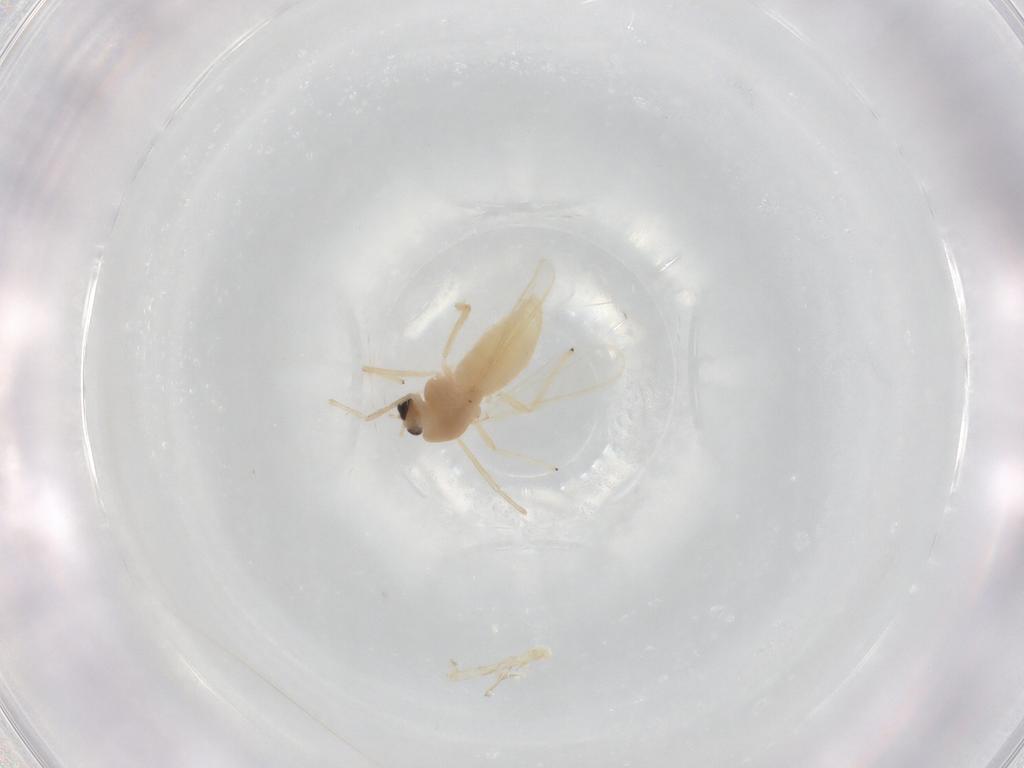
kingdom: Animalia
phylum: Arthropoda
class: Insecta
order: Diptera
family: Chironomidae
